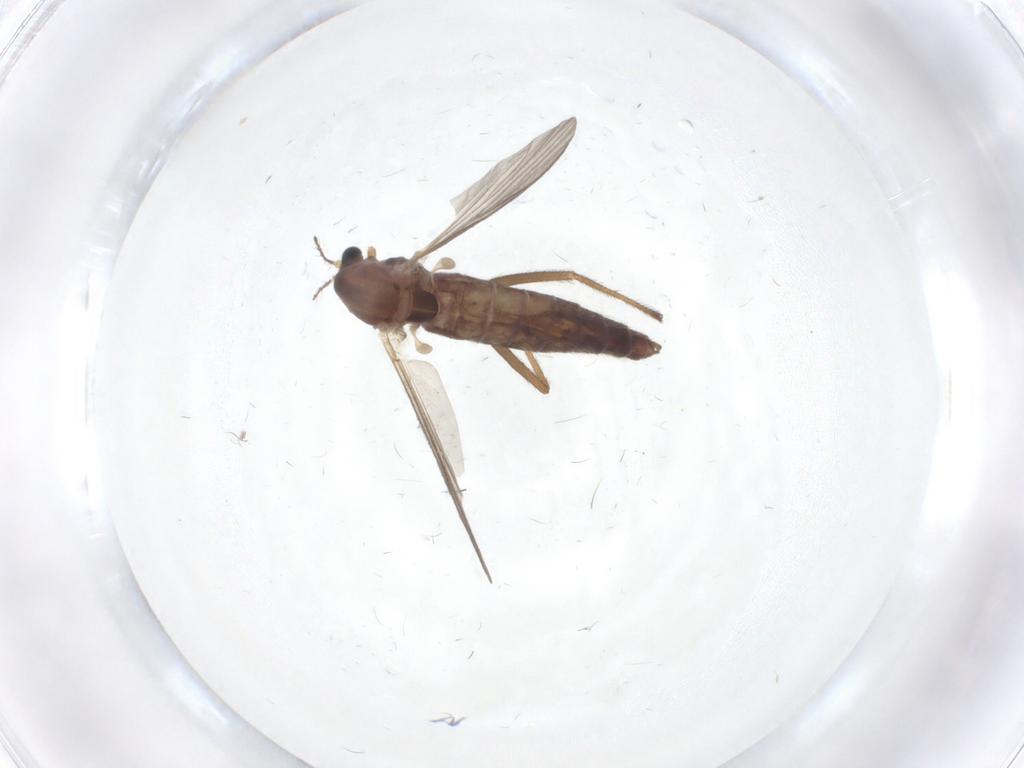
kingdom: Animalia
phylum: Arthropoda
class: Insecta
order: Diptera
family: Chironomidae
